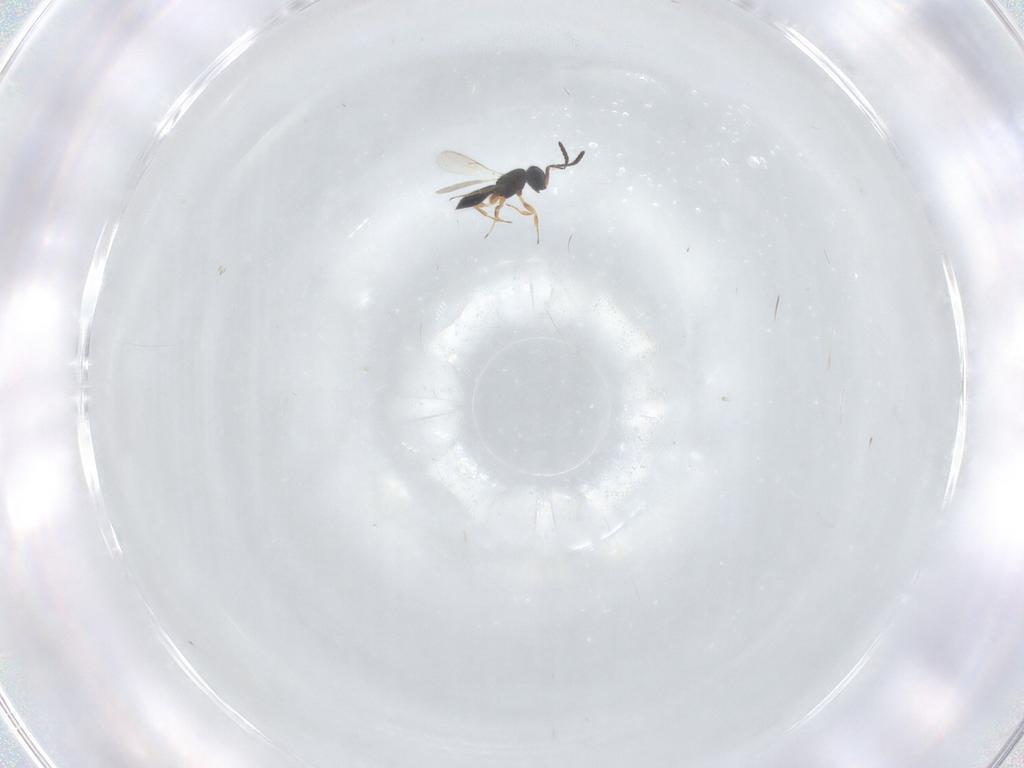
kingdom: Animalia
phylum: Arthropoda
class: Insecta
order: Hymenoptera
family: Scelionidae
